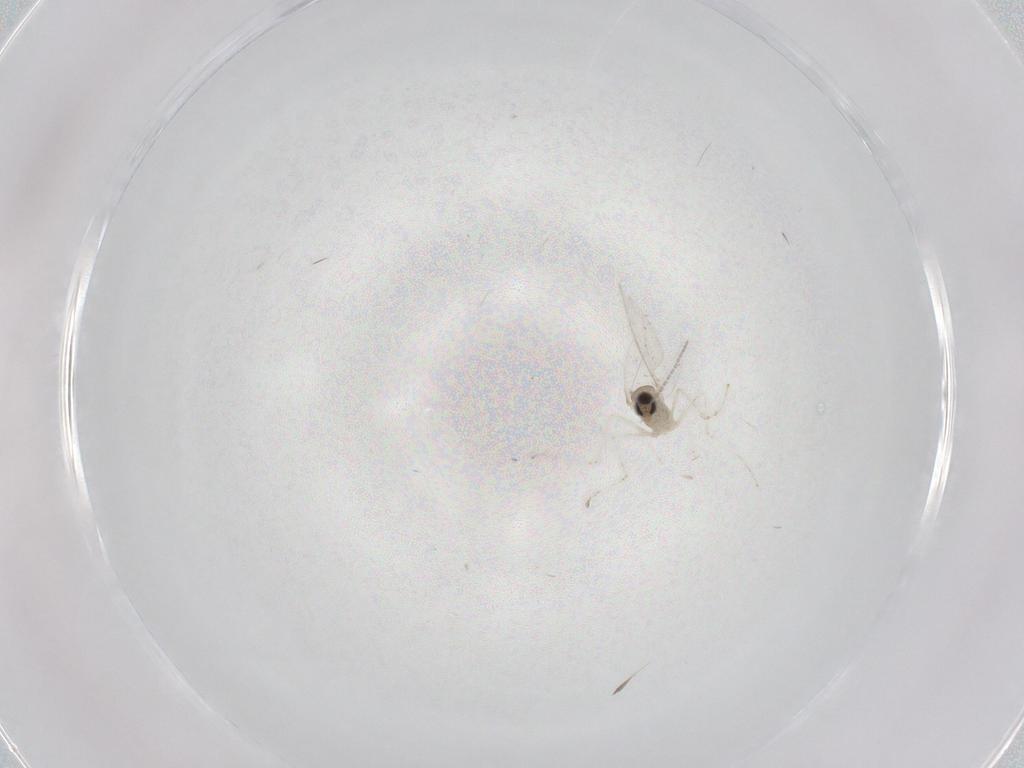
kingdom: Animalia
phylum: Arthropoda
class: Insecta
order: Diptera
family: Cecidomyiidae
